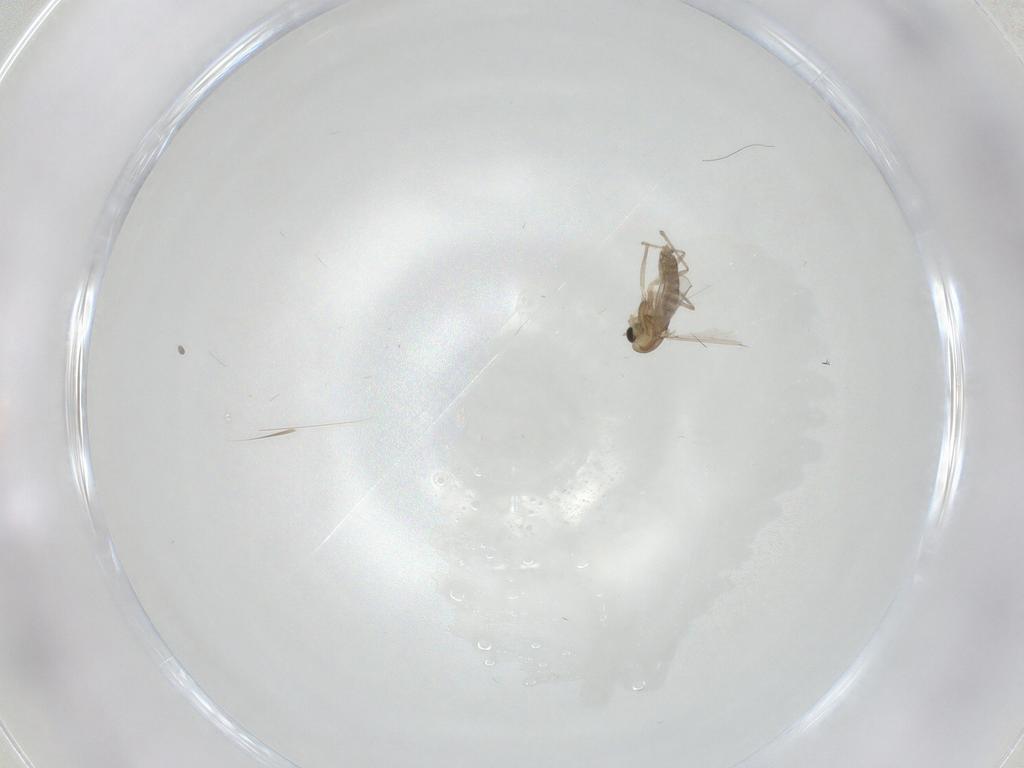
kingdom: Animalia
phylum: Arthropoda
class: Insecta
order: Diptera
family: Chironomidae
